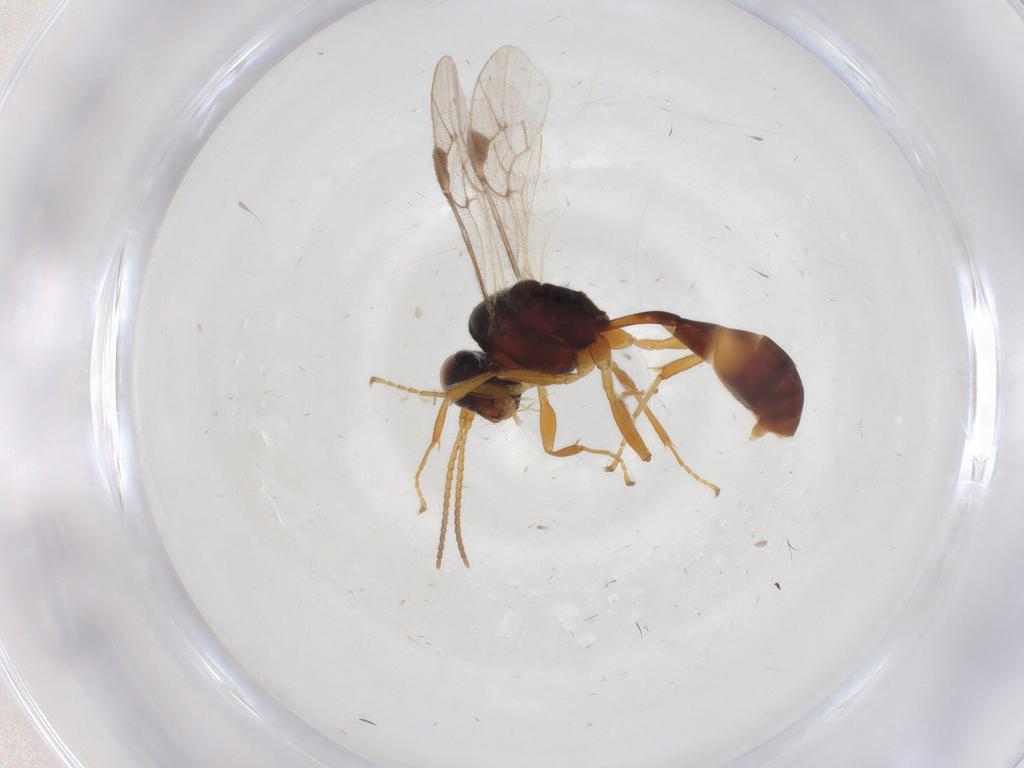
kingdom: Animalia
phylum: Arthropoda
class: Insecta
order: Hymenoptera
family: Ichneumonidae
